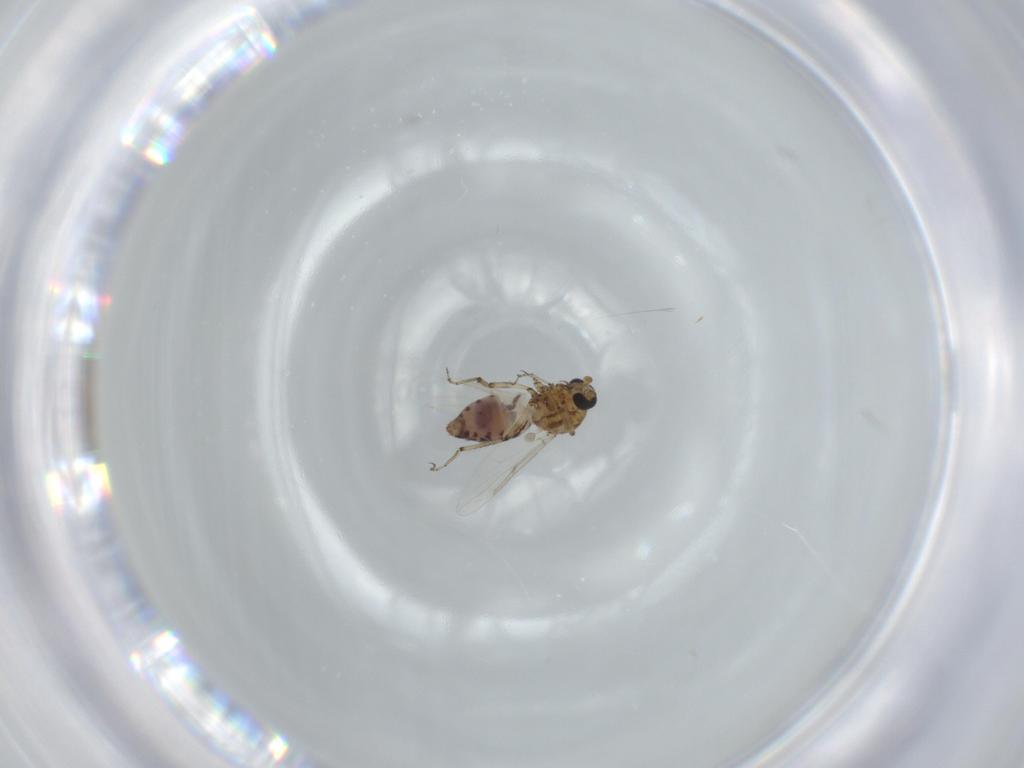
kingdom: Animalia
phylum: Arthropoda
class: Insecta
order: Diptera
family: Ceratopogonidae
